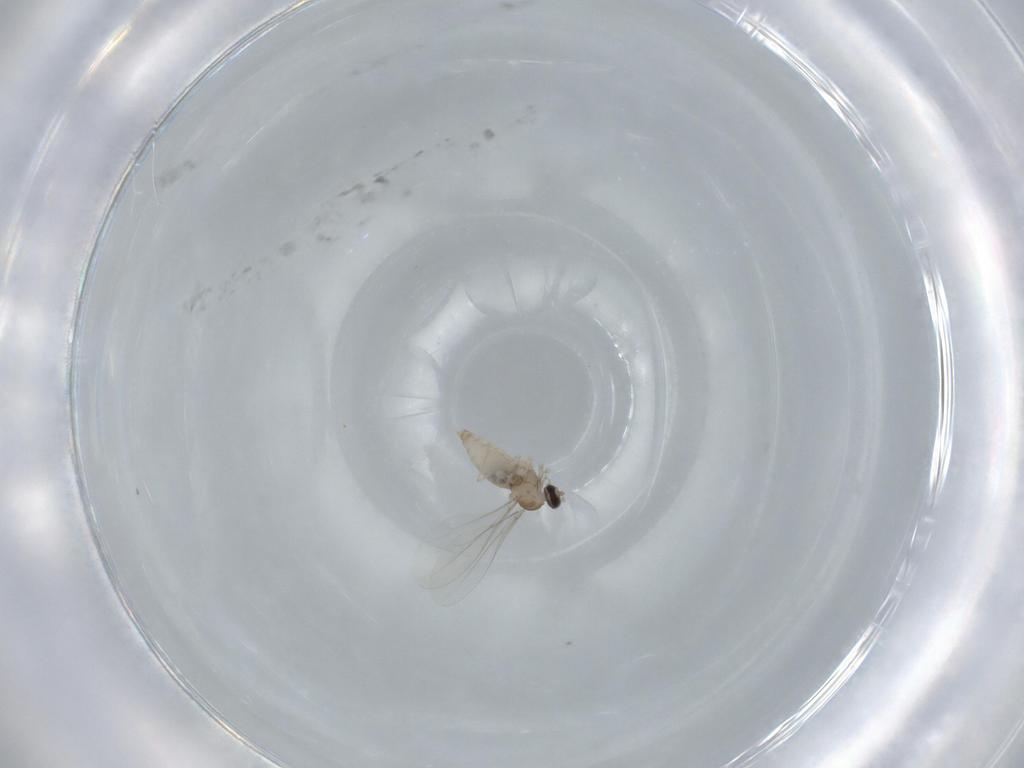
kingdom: Animalia
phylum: Arthropoda
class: Insecta
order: Diptera
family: Cecidomyiidae
